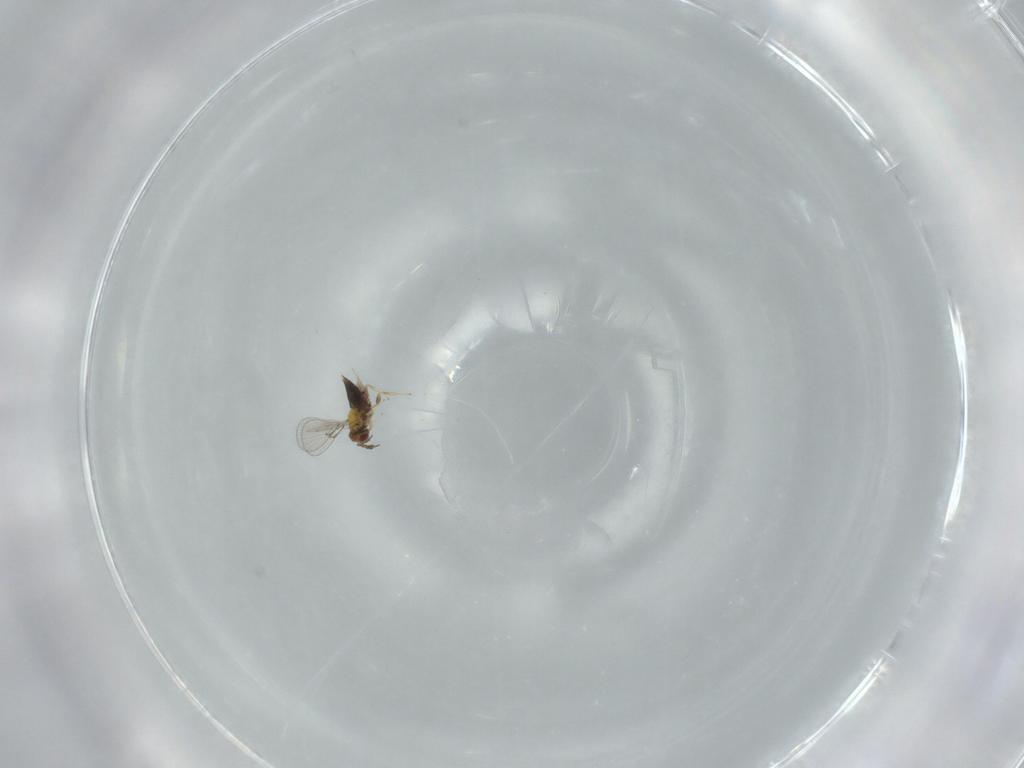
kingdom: Animalia
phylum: Arthropoda
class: Insecta
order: Hymenoptera
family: Trichogrammatidae
